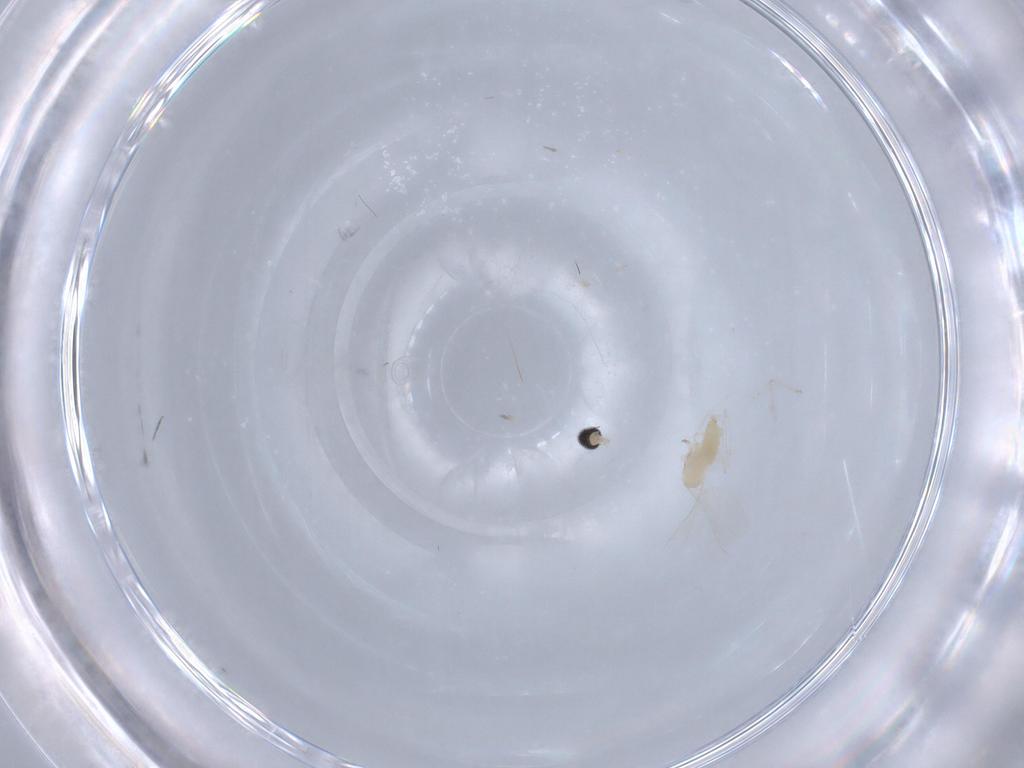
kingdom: Animalia
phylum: Arthropoda
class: Insecta
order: Diptera
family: Cecidomyiidae
